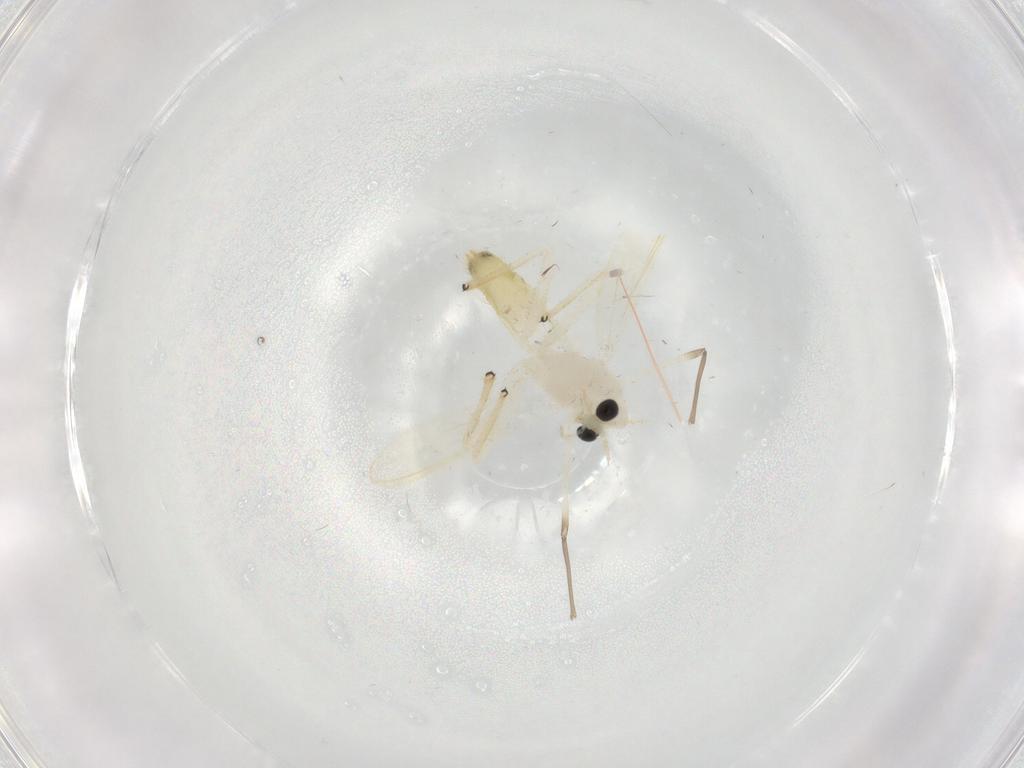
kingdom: Animalia
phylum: Arthropoda
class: Insecta
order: Diptera
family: Chironomidae
